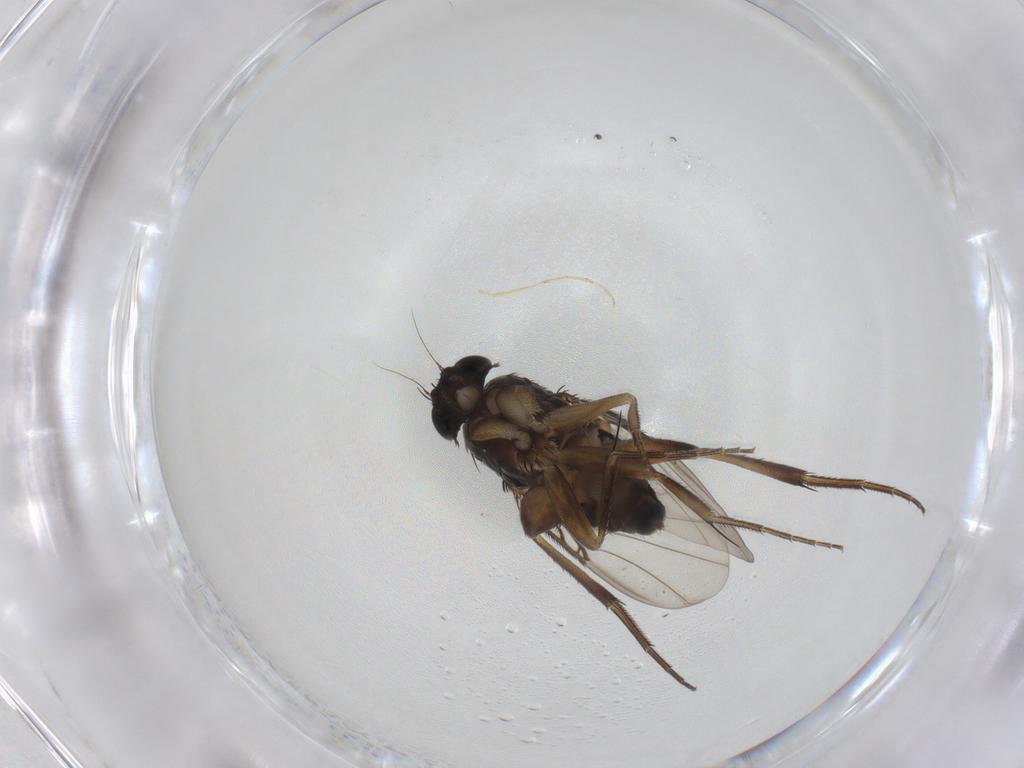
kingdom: Animalia
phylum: Arthropoda
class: Insecta
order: Diptera
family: Phoridae
